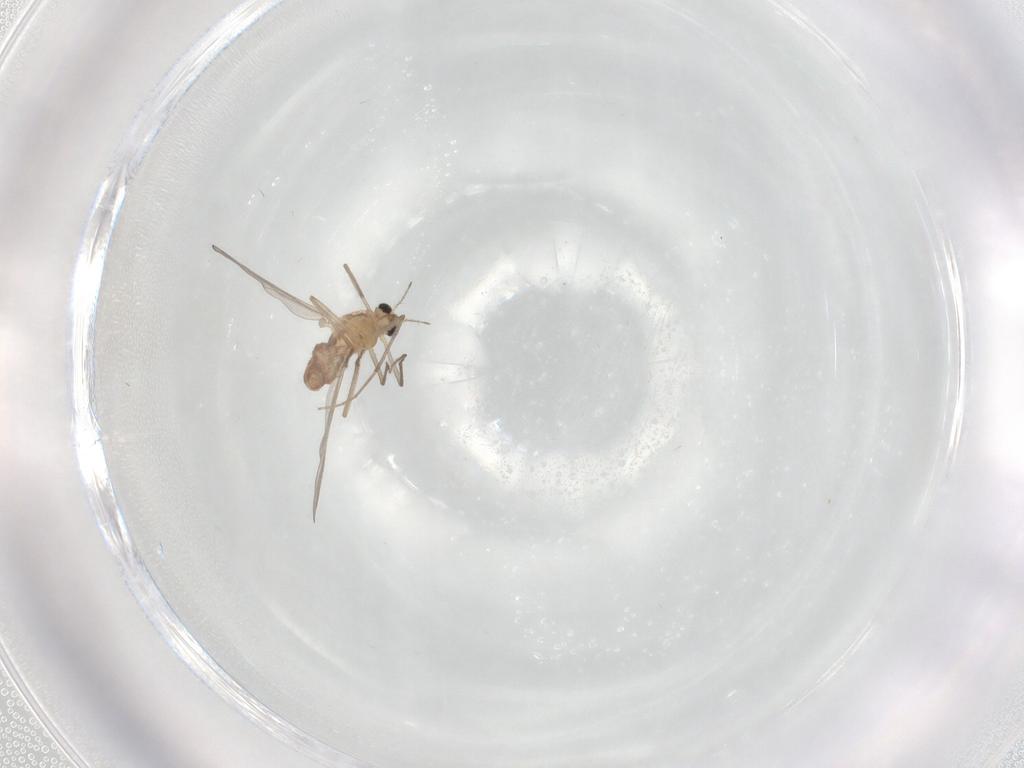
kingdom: Animalia
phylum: Arthropoda
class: Insecta
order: Diptera
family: Chironomidae
